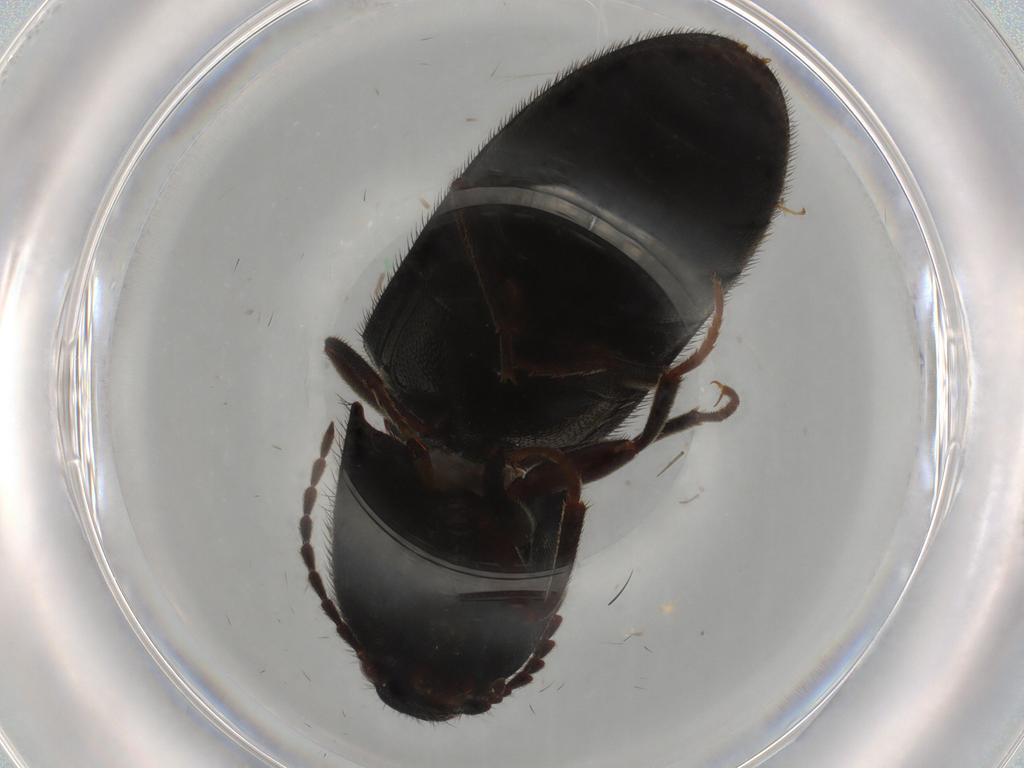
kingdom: Animalia
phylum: Arthropoda
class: Insecta
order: Coleoptera
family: Elateridae
